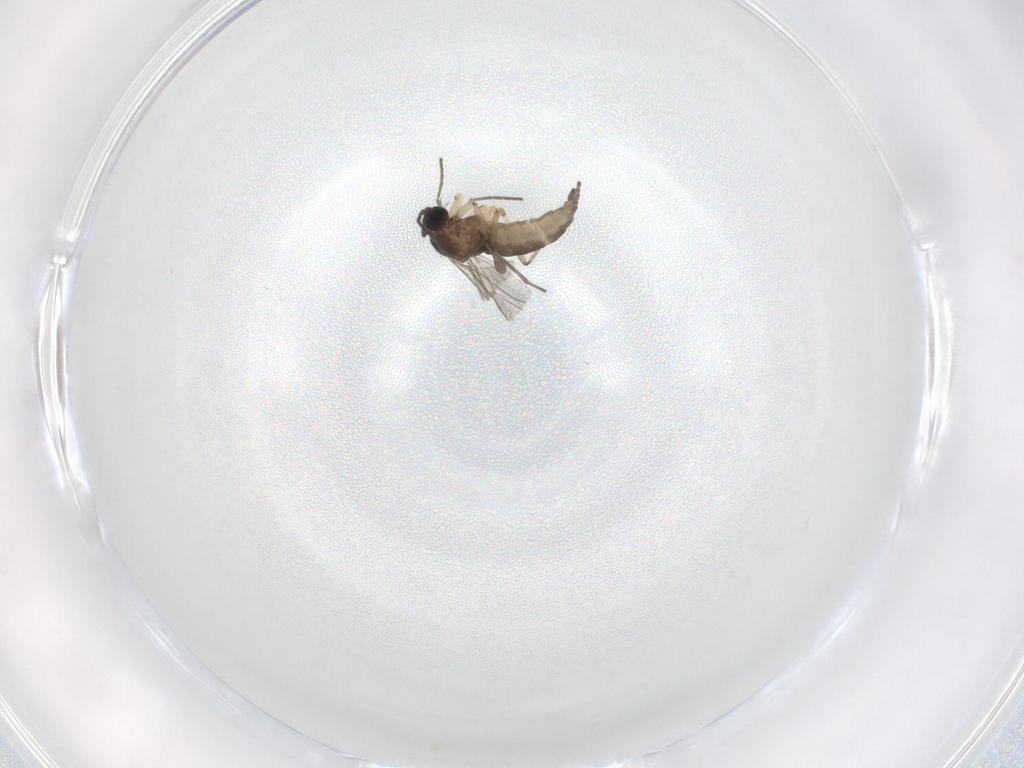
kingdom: Animalia
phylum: Arthropoda
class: Insecta
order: Diptera
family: Sciaridae
